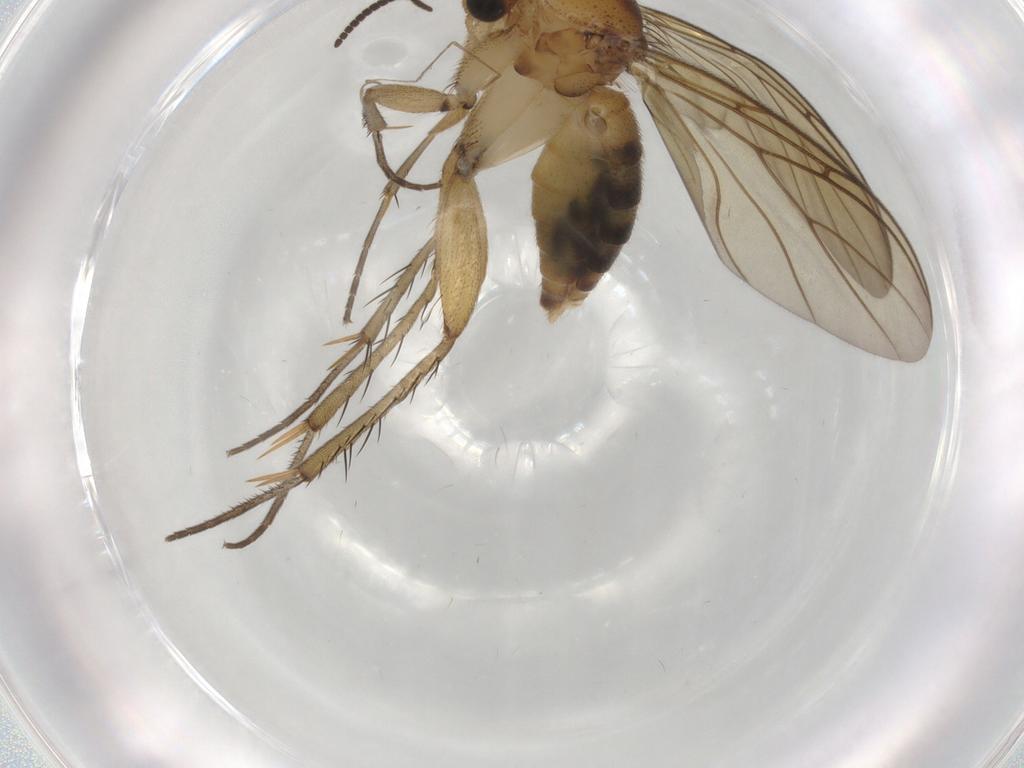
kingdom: Animalia
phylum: Arthropoda
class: Insecta
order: Diptera
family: Mycetophilidae
